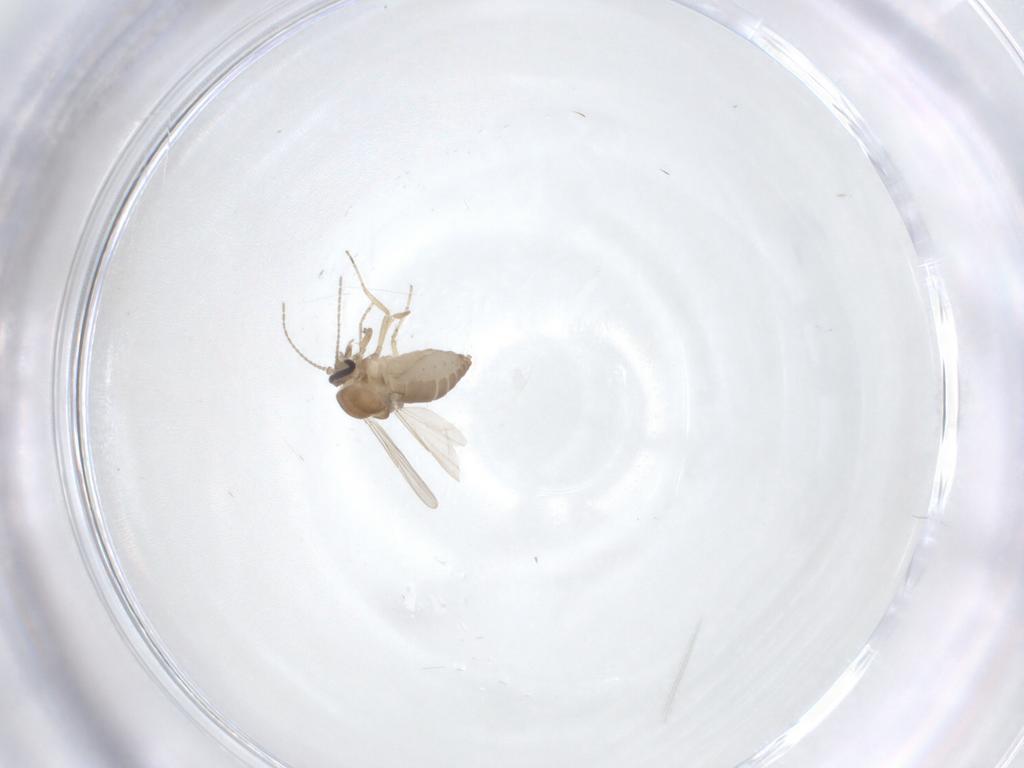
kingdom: Animalia
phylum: Arthropoda
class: Insecta
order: Diptera
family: Ceratopogonidae
